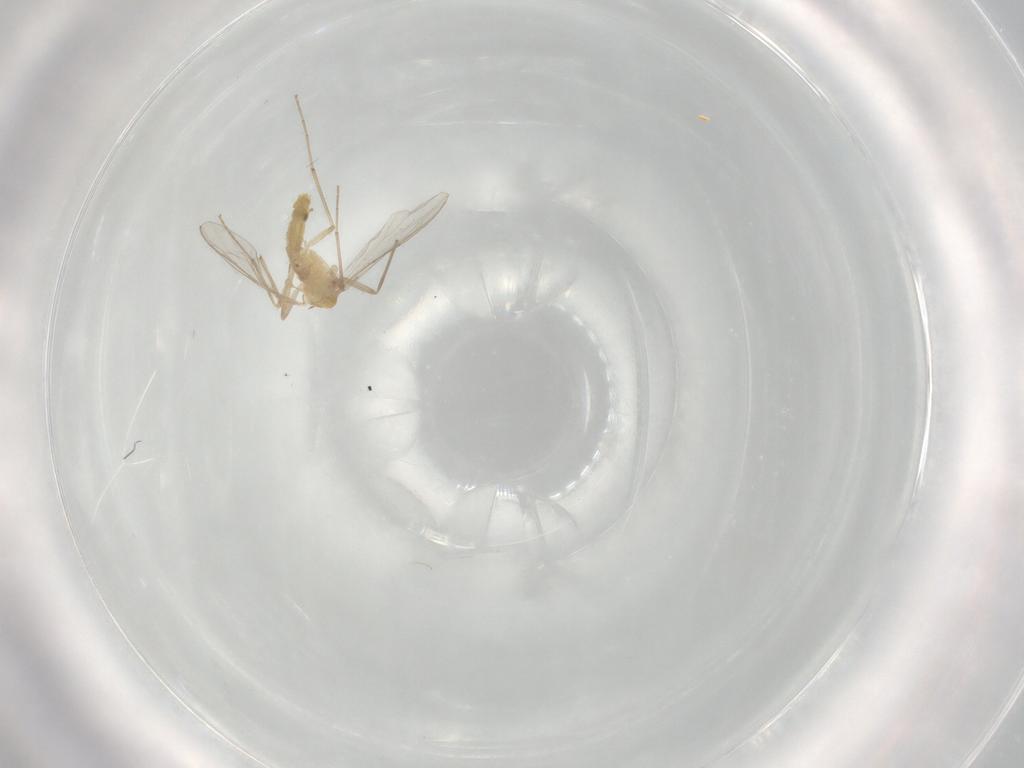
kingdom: Animalia
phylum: Arthropoda
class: Insecta
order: Diptera
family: Chironomidae
